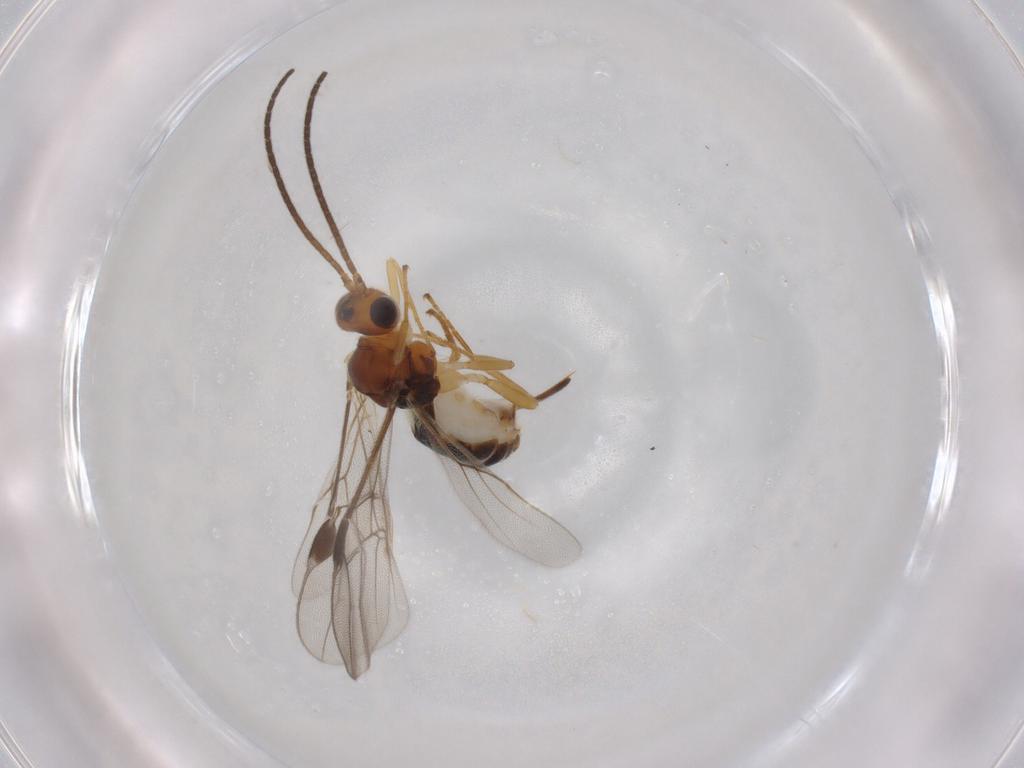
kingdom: Animalia
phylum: Arthropoda
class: Insecta
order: Hymenoptera
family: Braconidae
